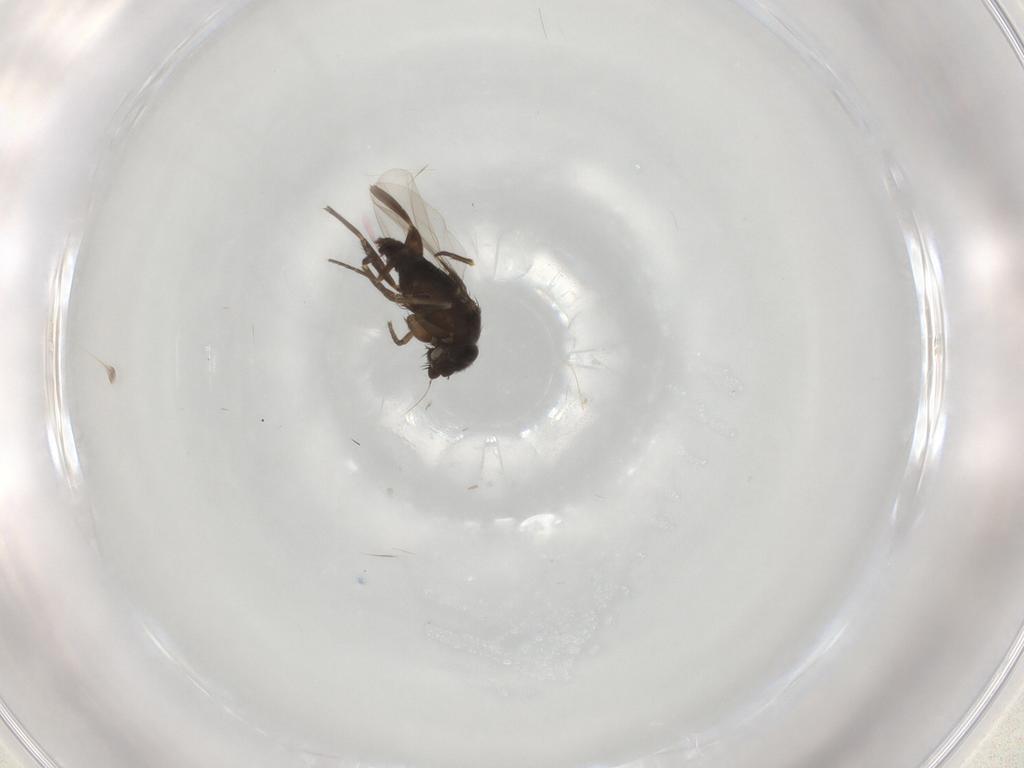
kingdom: Animalia
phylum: Arthropoda
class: Insecta
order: Diptera
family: Phoridae
